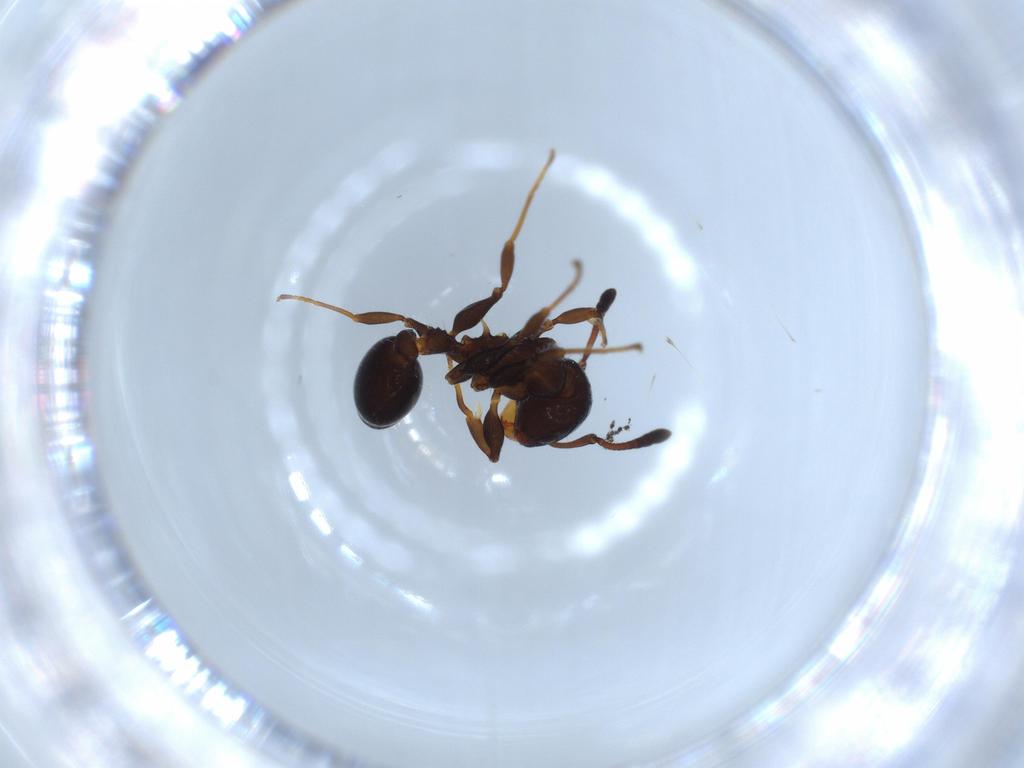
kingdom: Animalia
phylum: Arthropoda
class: Insecta
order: Hymenoptera
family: Formicidae
